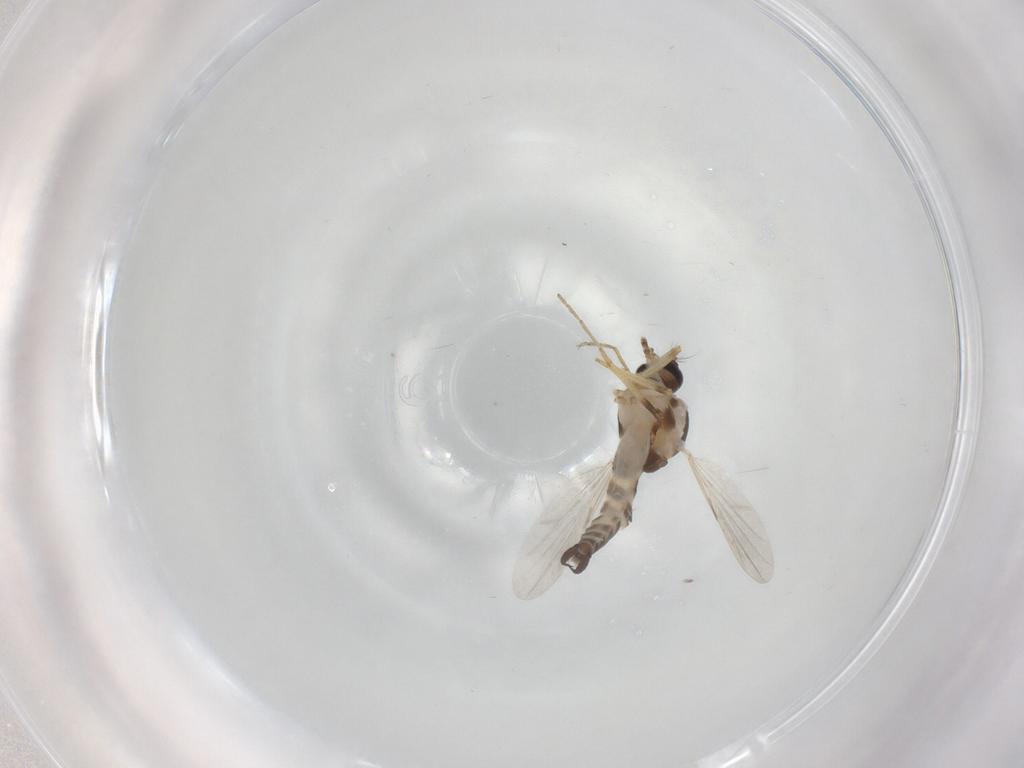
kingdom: Animalia
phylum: Arthropoda
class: Insecta
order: Diptera
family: Ceratopogonidae
